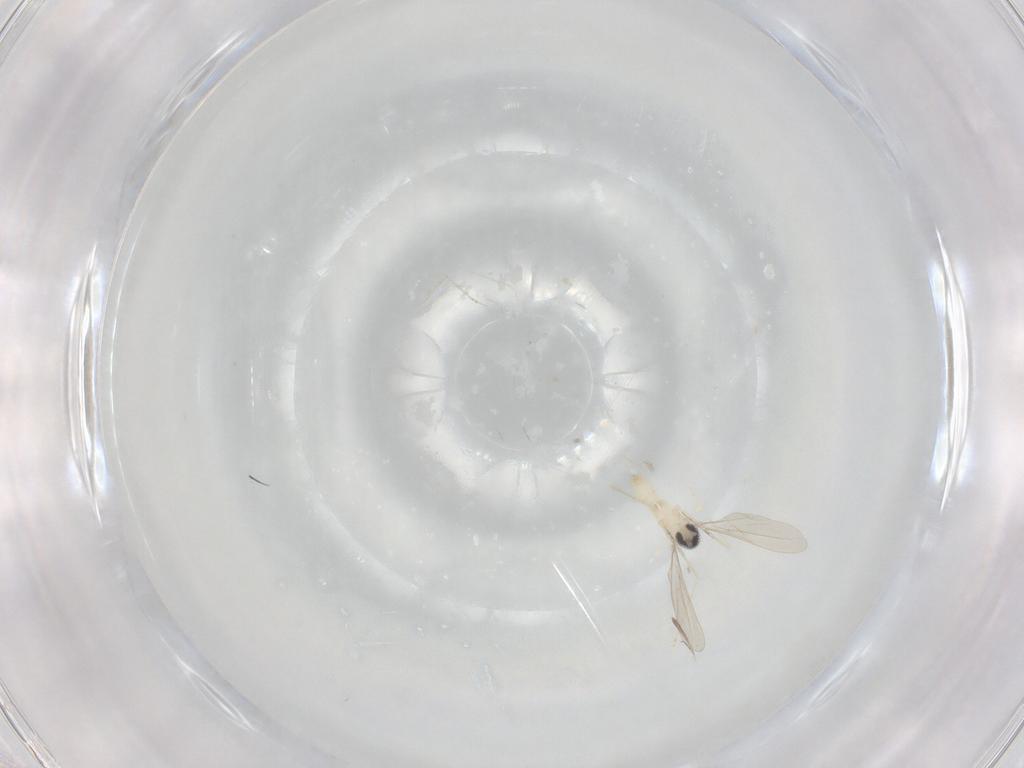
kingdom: Animalia
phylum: Arthropoda
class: Insecta
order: Diptera
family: Cecidomyiidae
